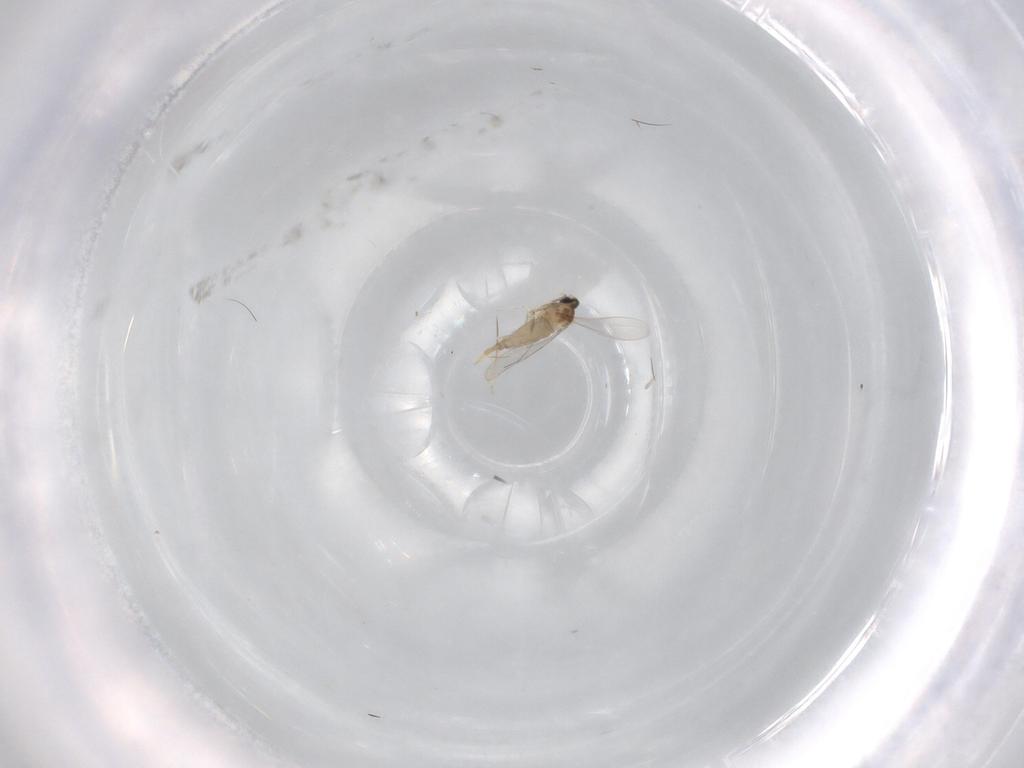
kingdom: Animalia
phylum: Arthropoda
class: Insecta
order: Diptera
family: Cecidomyiidae
